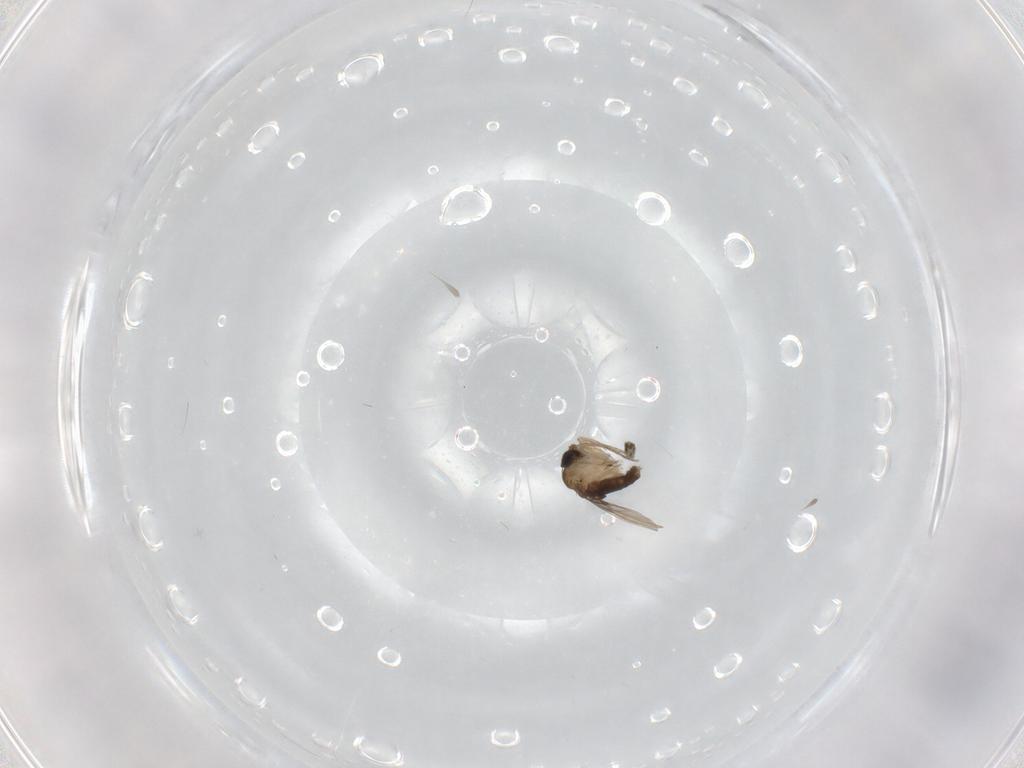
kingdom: Animalia
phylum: Arthropoda
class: Insecta
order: Diptera
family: Phoridae
